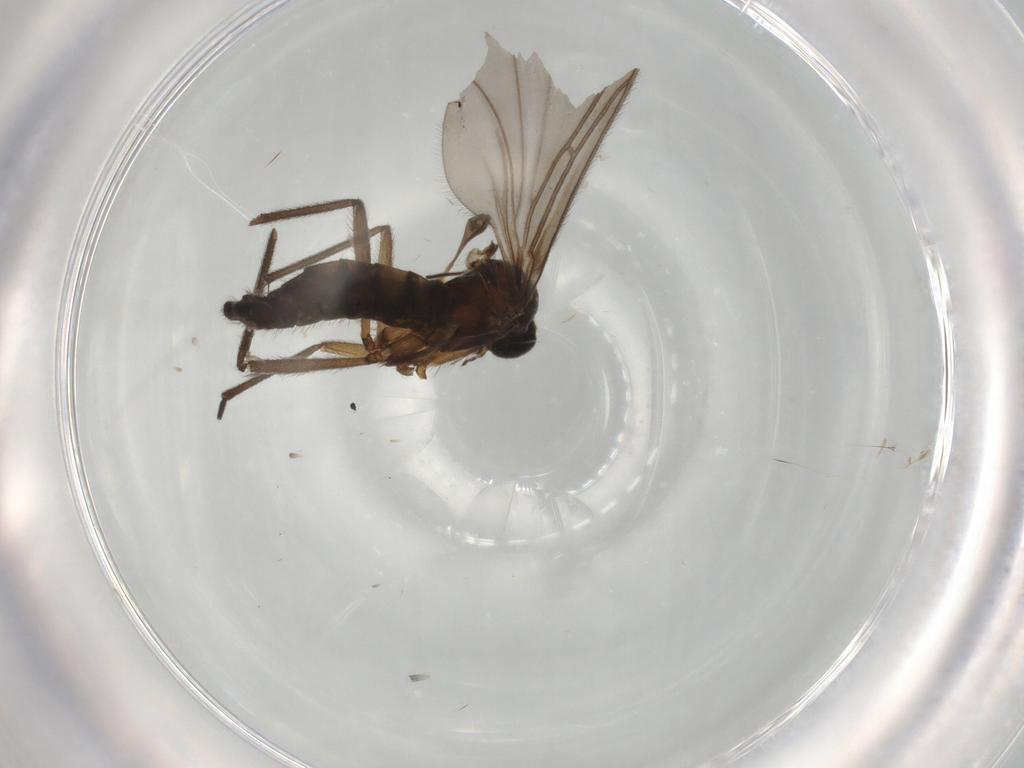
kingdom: Animalia
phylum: Arthropoda
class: Insecta
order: Diptera
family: Chironomidae
